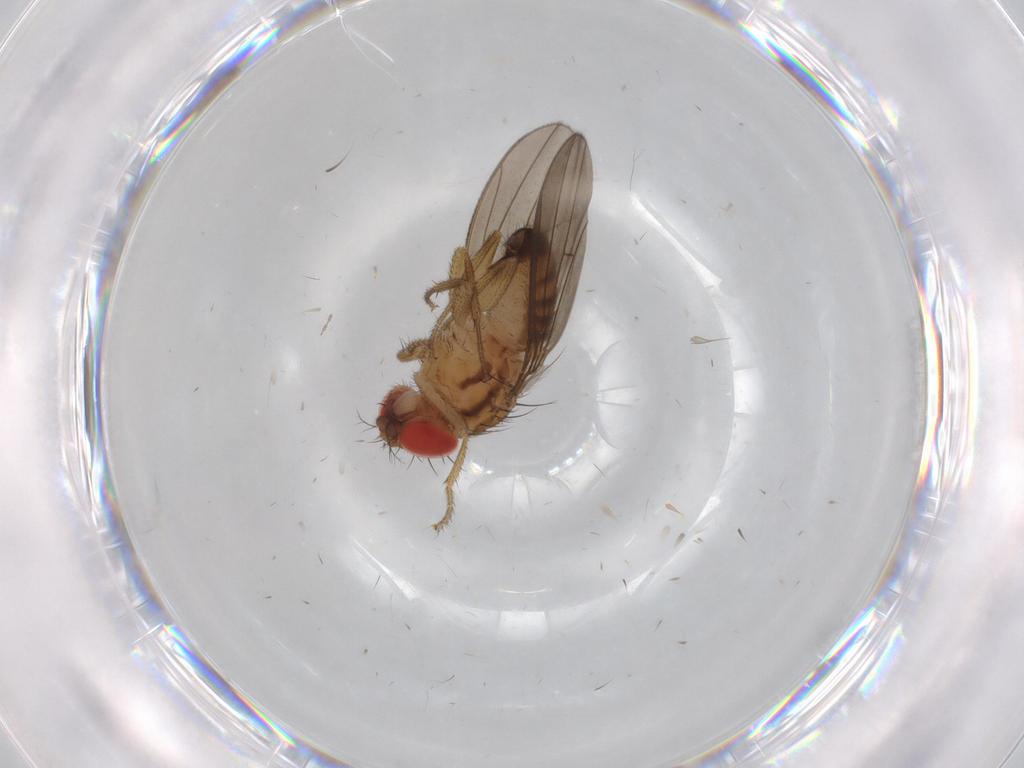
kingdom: Animalia
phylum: Arthropoda
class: Insecta
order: Diptera
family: Drosophilidae
